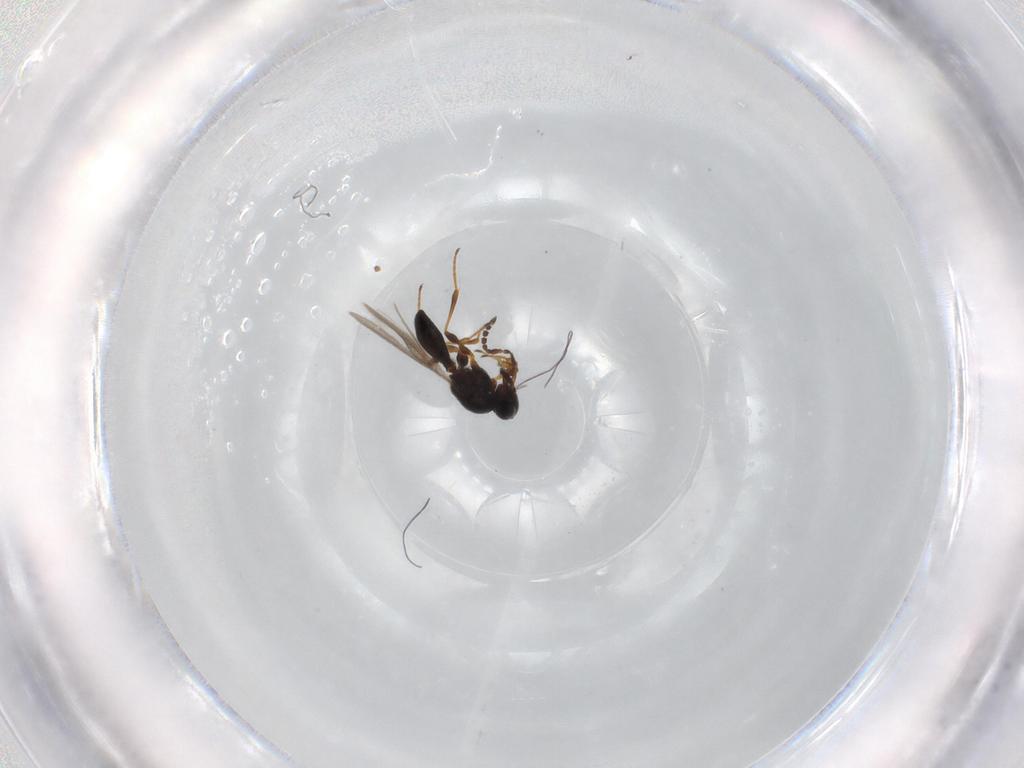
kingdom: Animalia
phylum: Arthropoda
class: Insecta
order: Hymenoptera
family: Platygastridae
